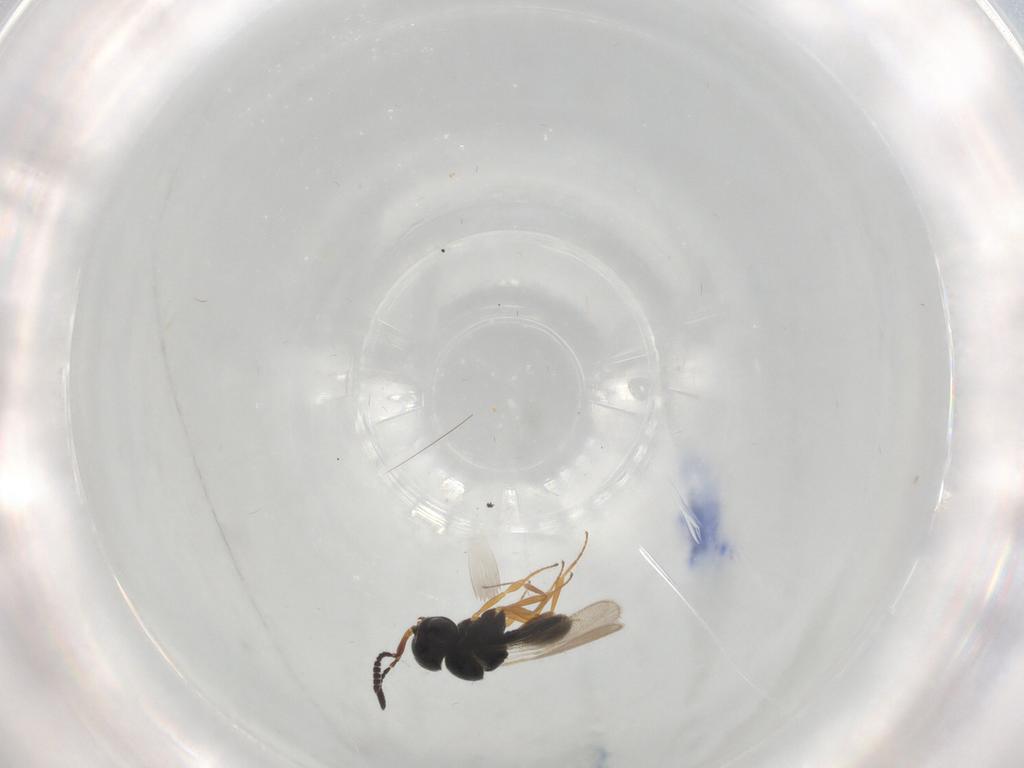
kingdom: Animalia
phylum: Arthropoda
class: Insecta
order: Hymenoptera
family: Scelionidae
